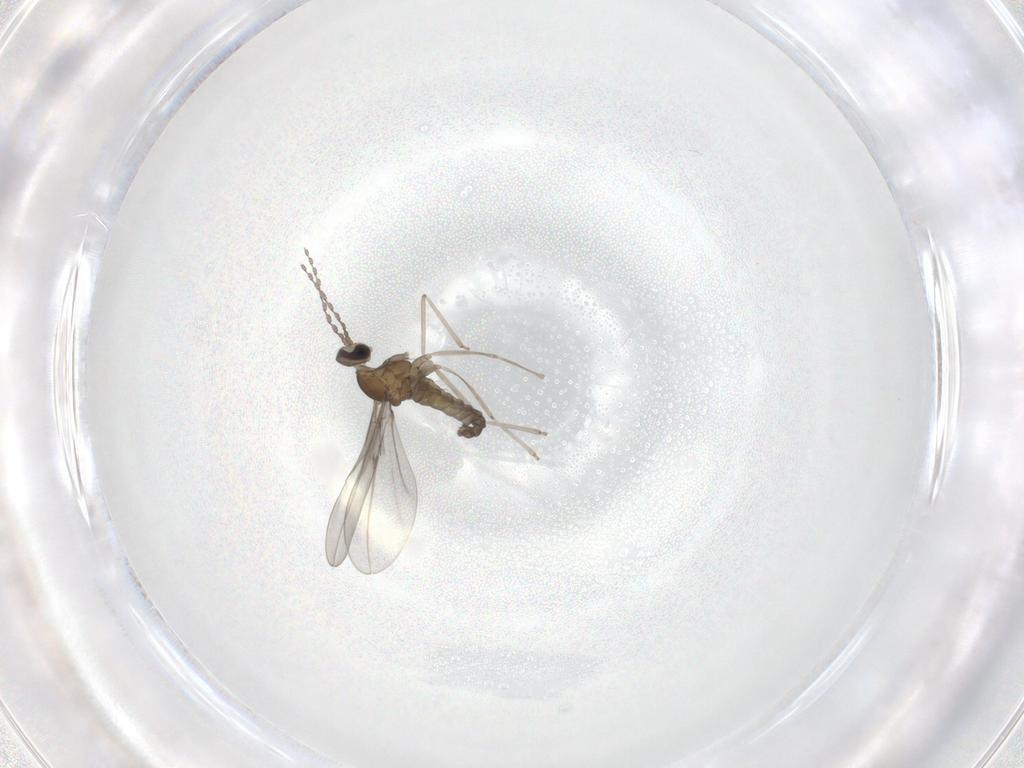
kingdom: Animalia
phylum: Arthropoda
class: Insecta
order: Diptera
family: Cecidomyiidae
